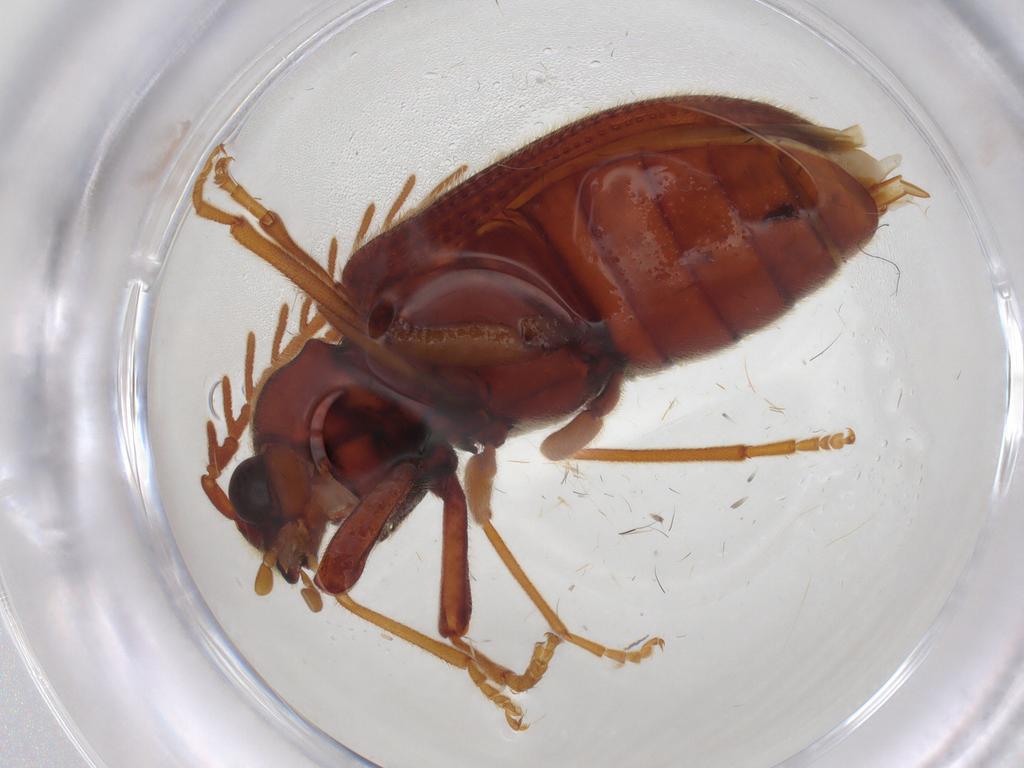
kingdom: Animalia
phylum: Arthropoda
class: Insecta
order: Coleoptera
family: Cerophytidae
